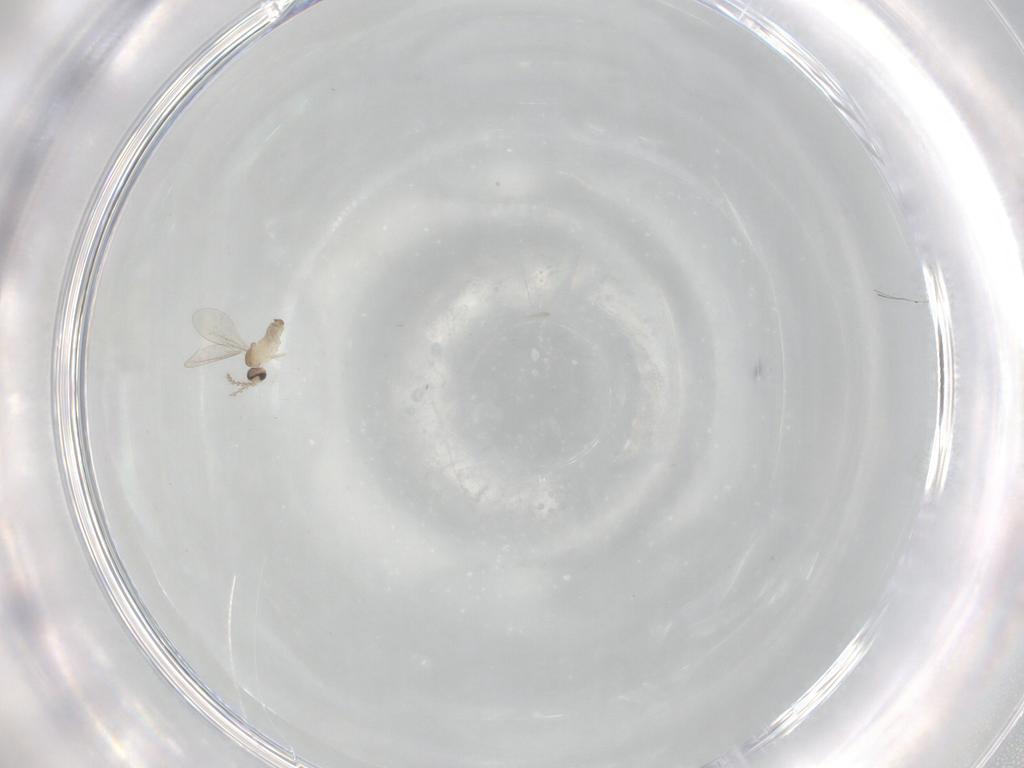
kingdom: Animalia
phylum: Arthropoda
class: Insecta
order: Diptera
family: Cecidomyiidae
